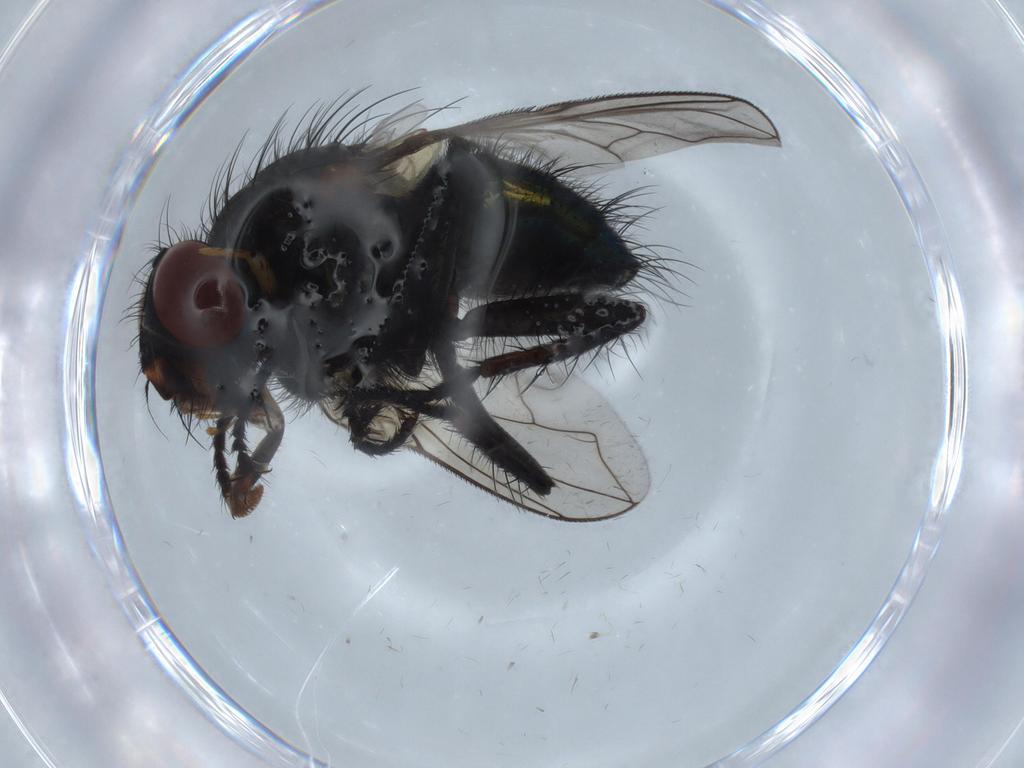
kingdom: Animalia
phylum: Arthropoda
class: Insecta
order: Diptera
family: Calliphoridae
